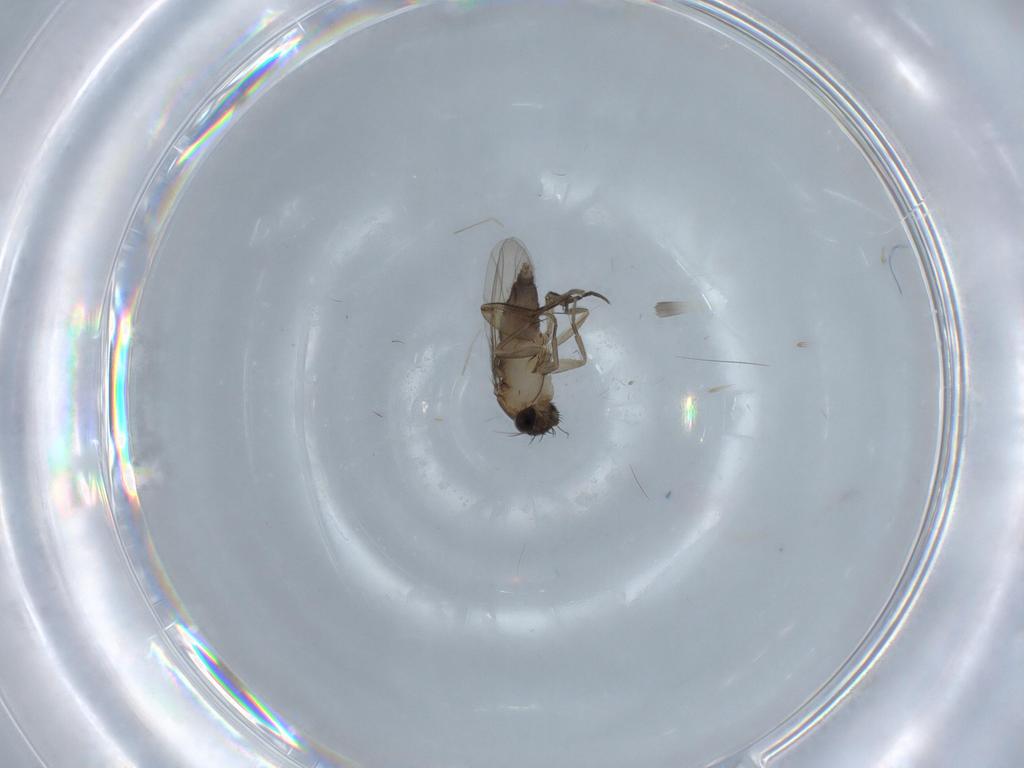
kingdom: Animalia
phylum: Arthropoda
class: Insecta
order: Diptera
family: Phoridae
